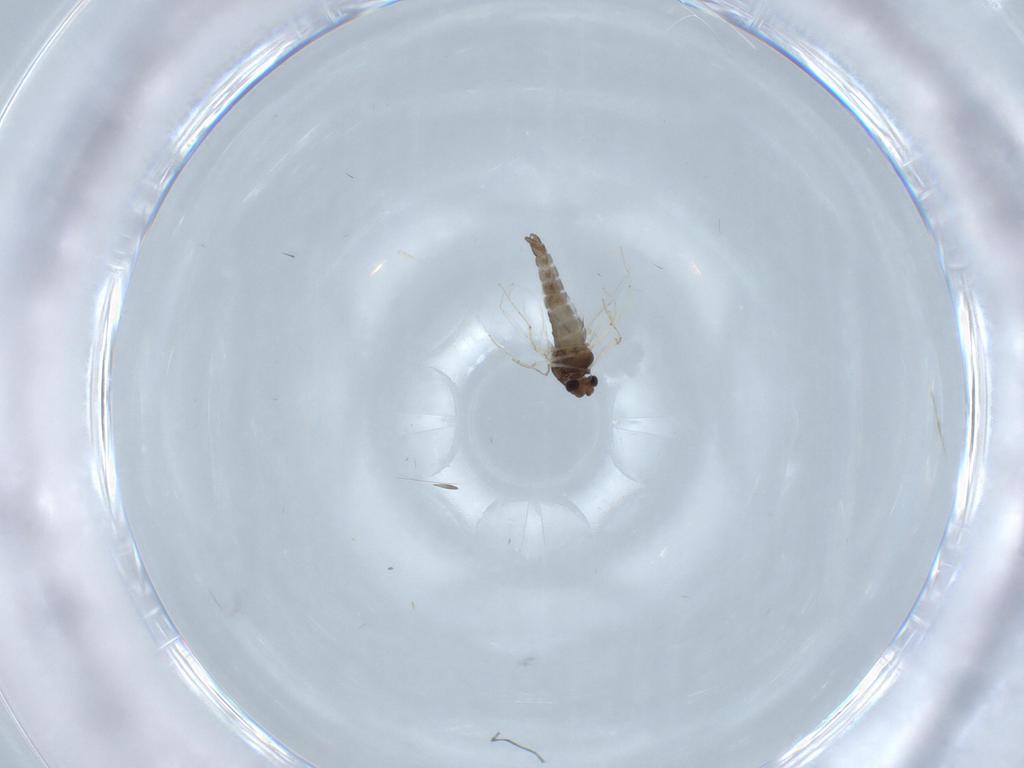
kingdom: Animalia
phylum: Arthropoda
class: Insecta
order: Diptera
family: Chironomidae
